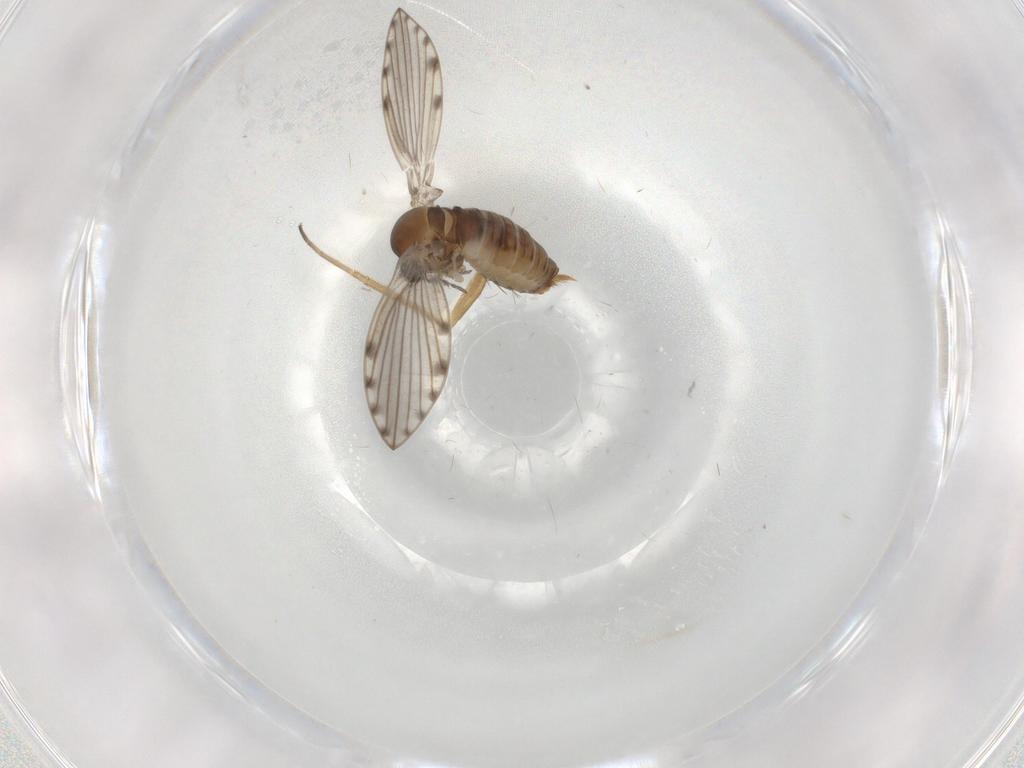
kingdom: Animalia
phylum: Arthropoda
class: Insecta
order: Diptera
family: Psychodidae
